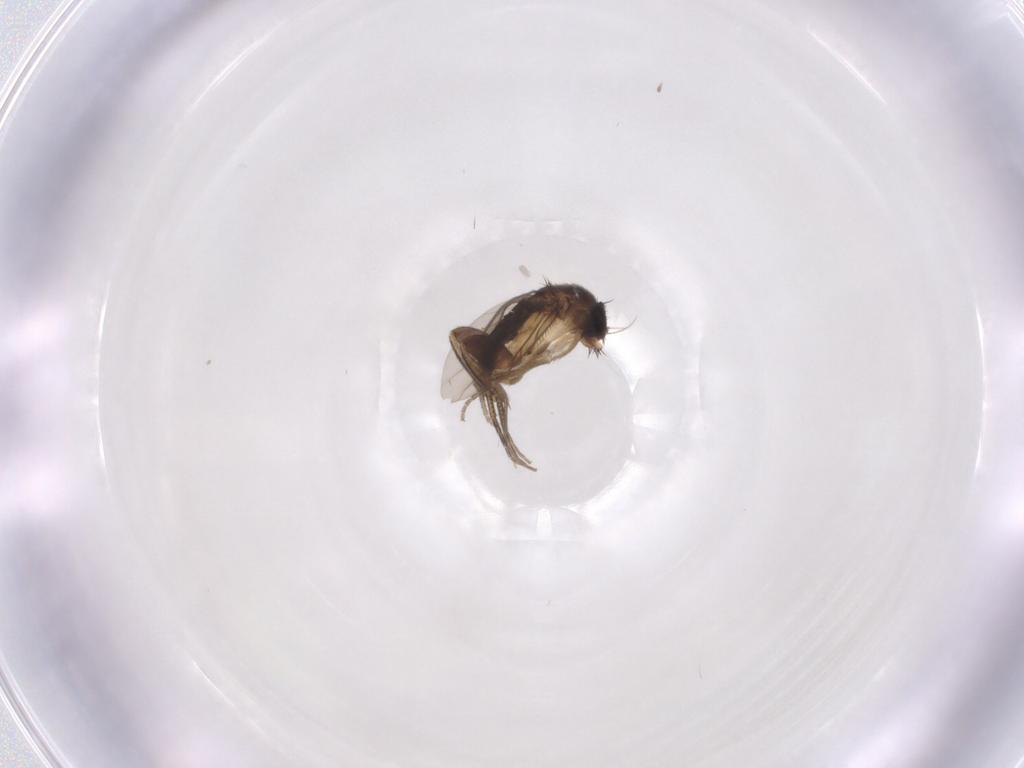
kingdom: Animalia
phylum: Arthropoda
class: Insecta
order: Diptera
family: Phoridae
